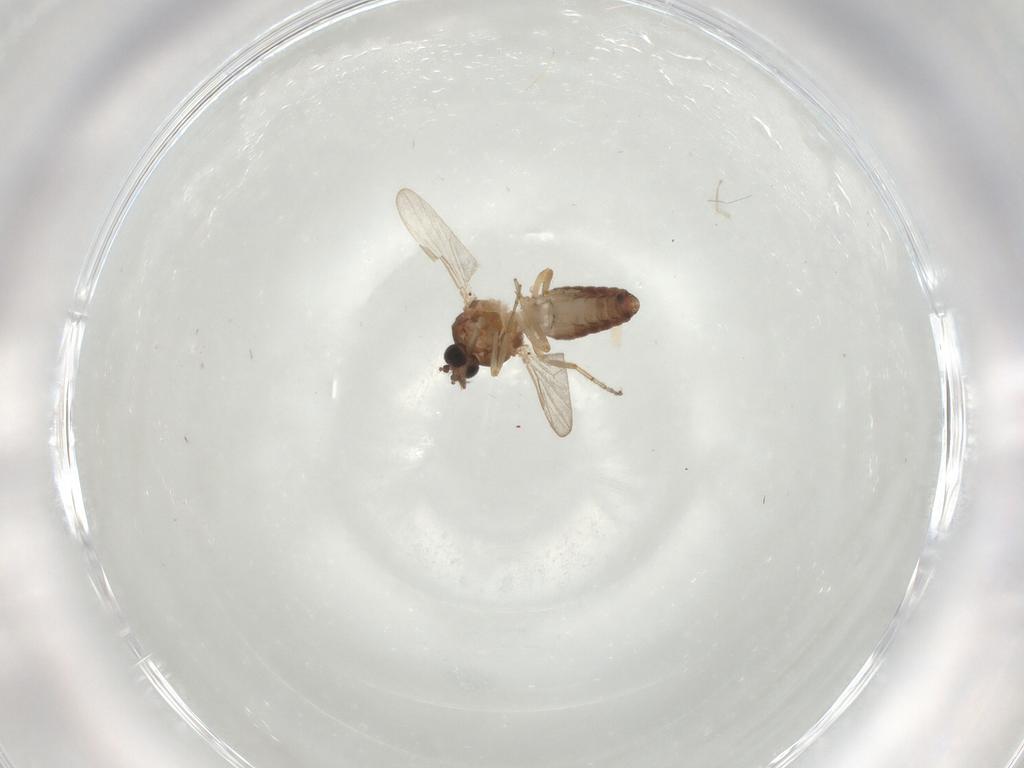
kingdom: Animalia
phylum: Arthropoda
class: Insecta
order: Diptera
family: Ceratopogonidae
